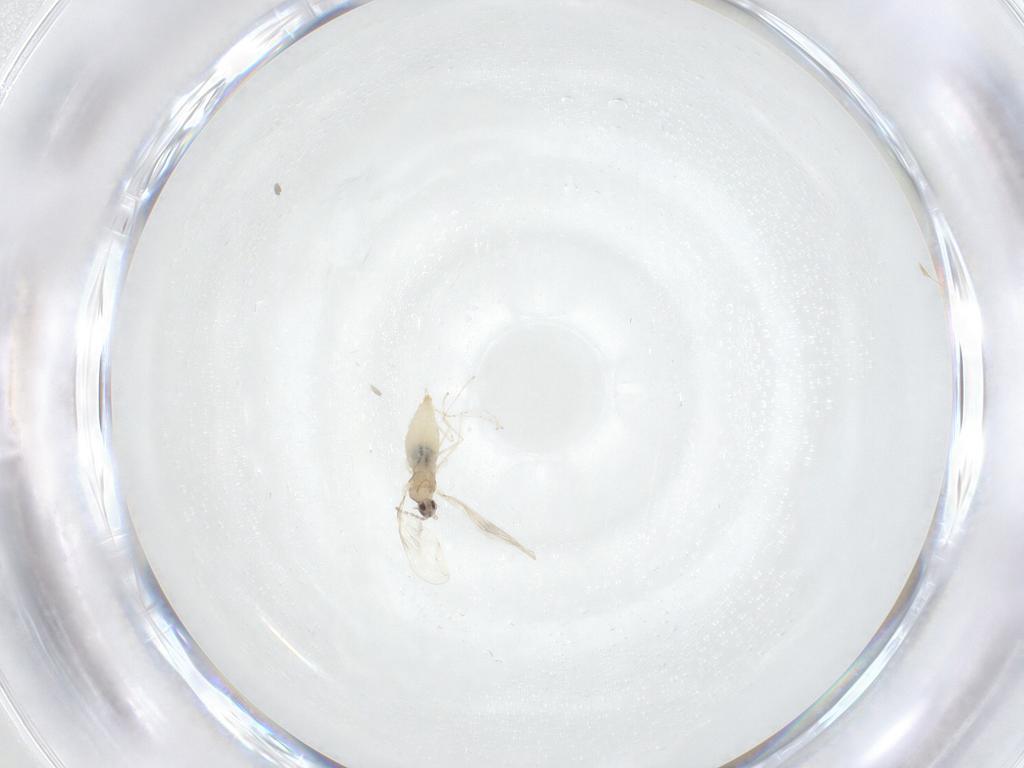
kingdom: Animalia
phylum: Arthropoda
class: Insecta
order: Diptera
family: Cecidomyiidae
